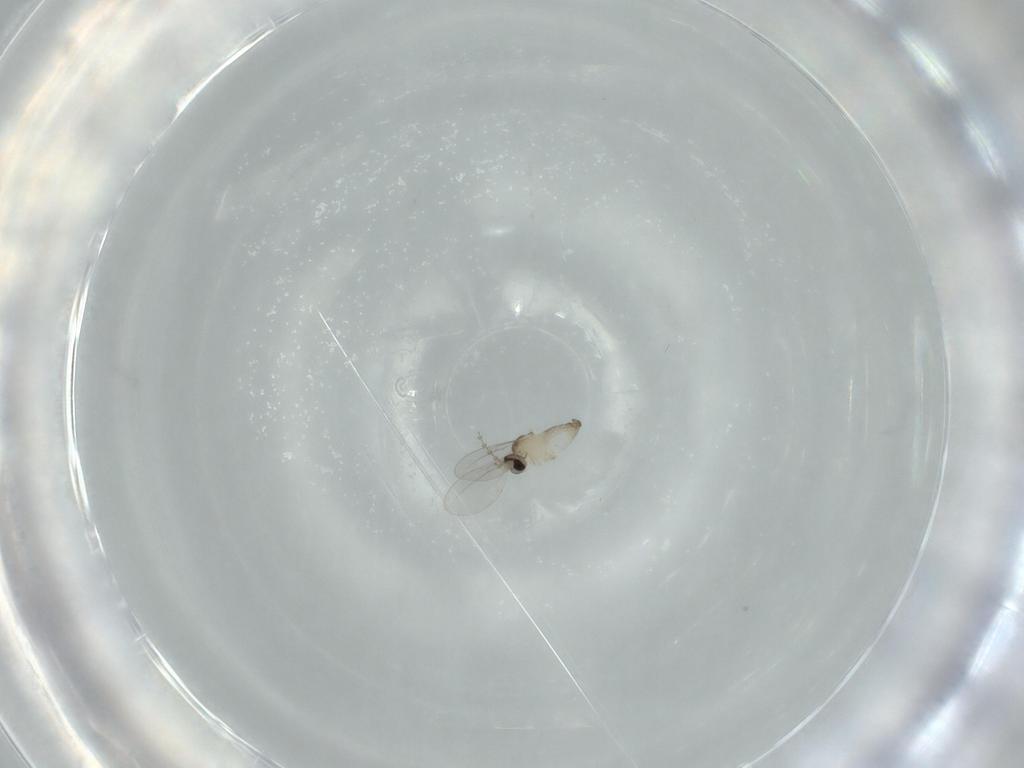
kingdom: Animalia
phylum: Arthropoda
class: Insecta
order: Diptera
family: Cecidomyiidae
